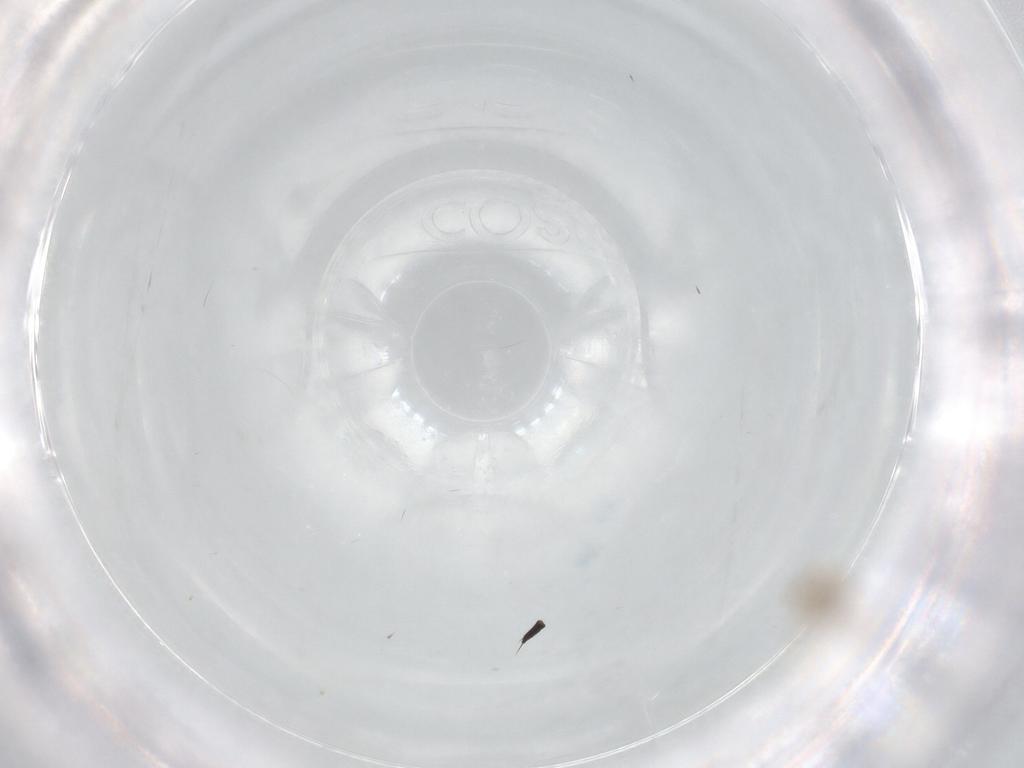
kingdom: Animalia
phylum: Arthropoda
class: Insecta
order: Diptera
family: Cecidomyiidae
